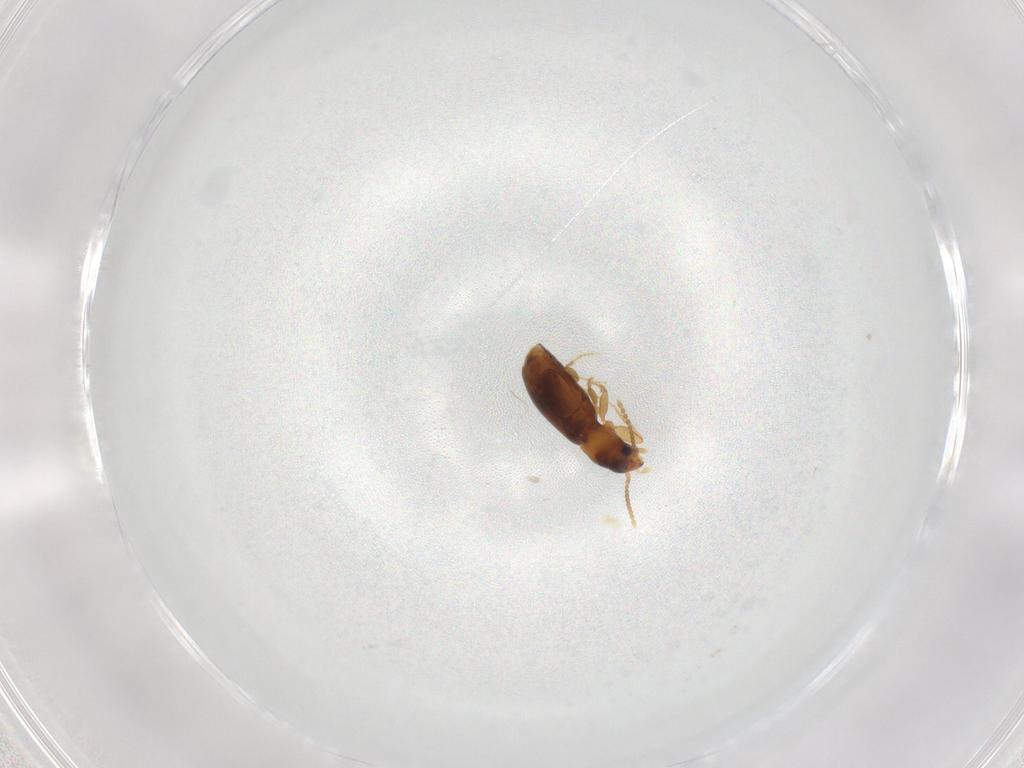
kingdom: Animalia
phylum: Arthropoda
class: Insecta
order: Coleoptera
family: Carabidae
